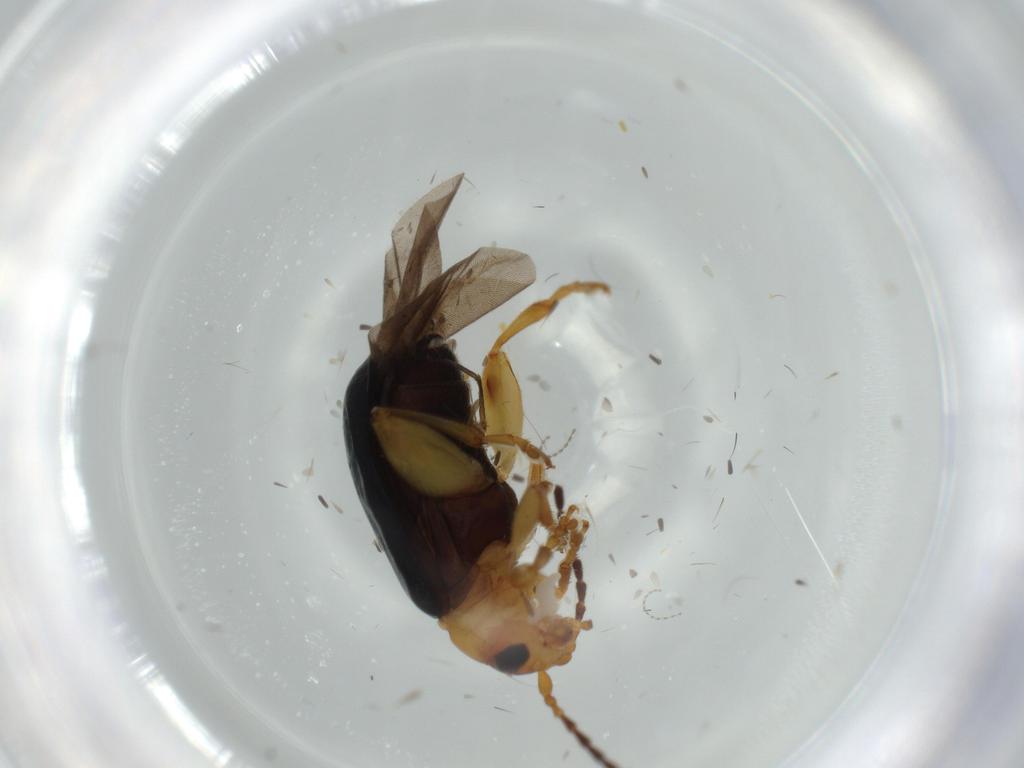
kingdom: Animalia
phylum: Arthropoda
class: Insecta
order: Coleoptera
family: Chrysomelidae
